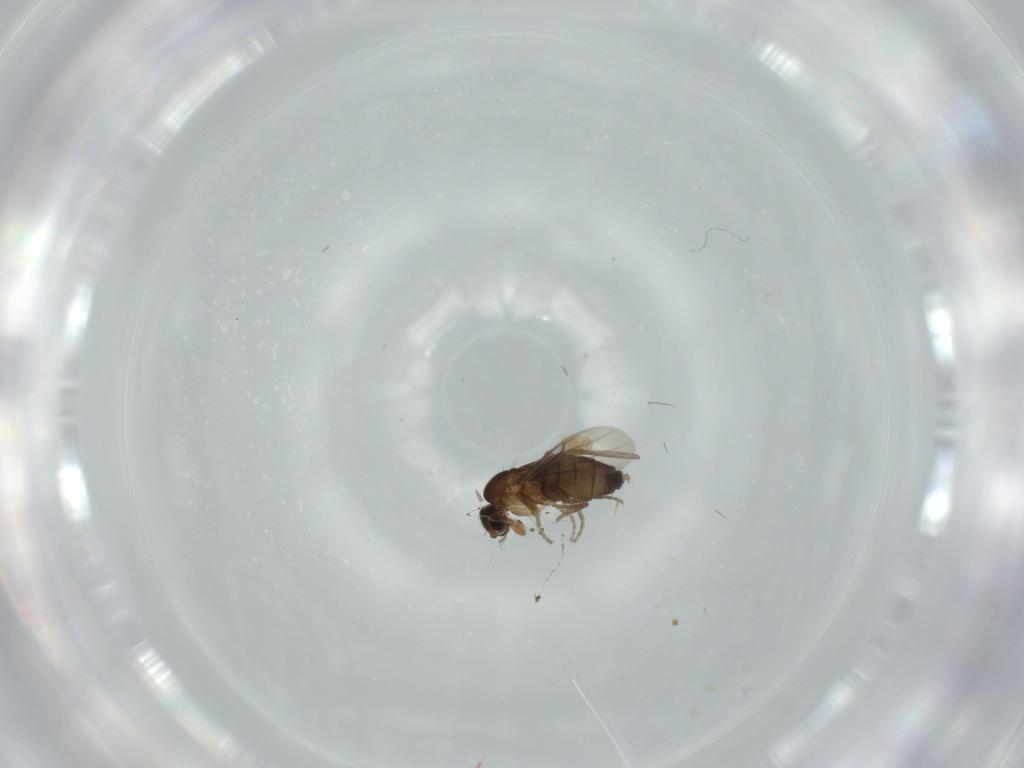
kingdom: Animalia
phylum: Arthropoda
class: Insecta
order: Diptera
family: Phoridae
